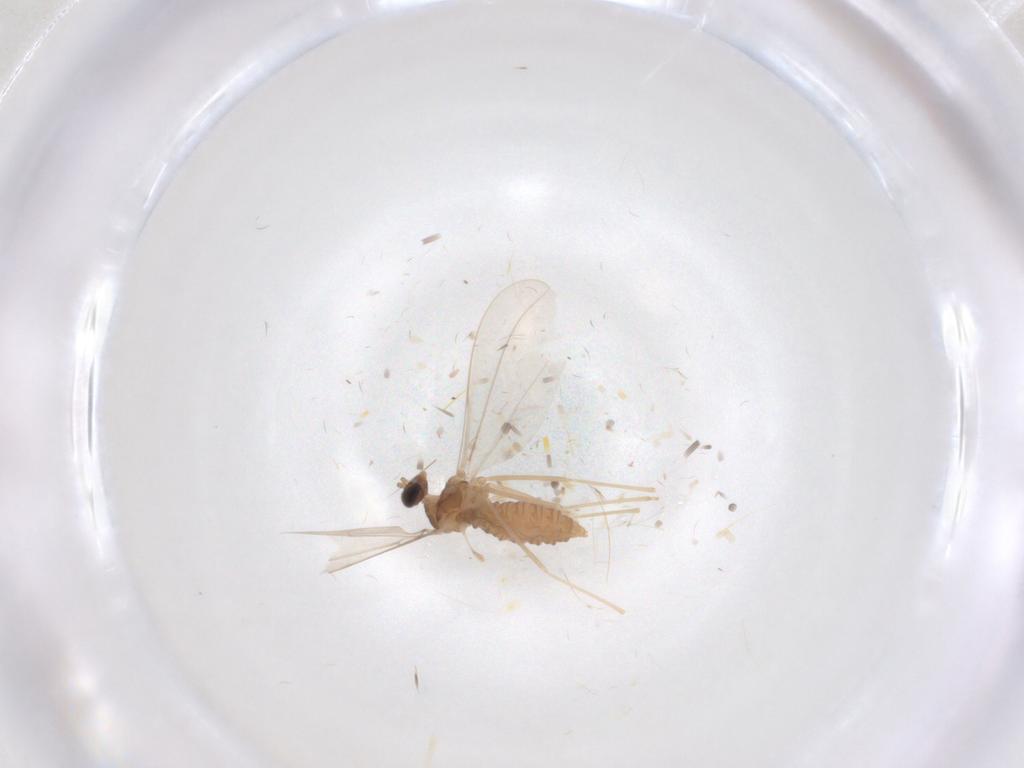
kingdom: Animalia
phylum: Arthropoda
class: Insecta
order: Diptera
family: Cecidomyiidae
